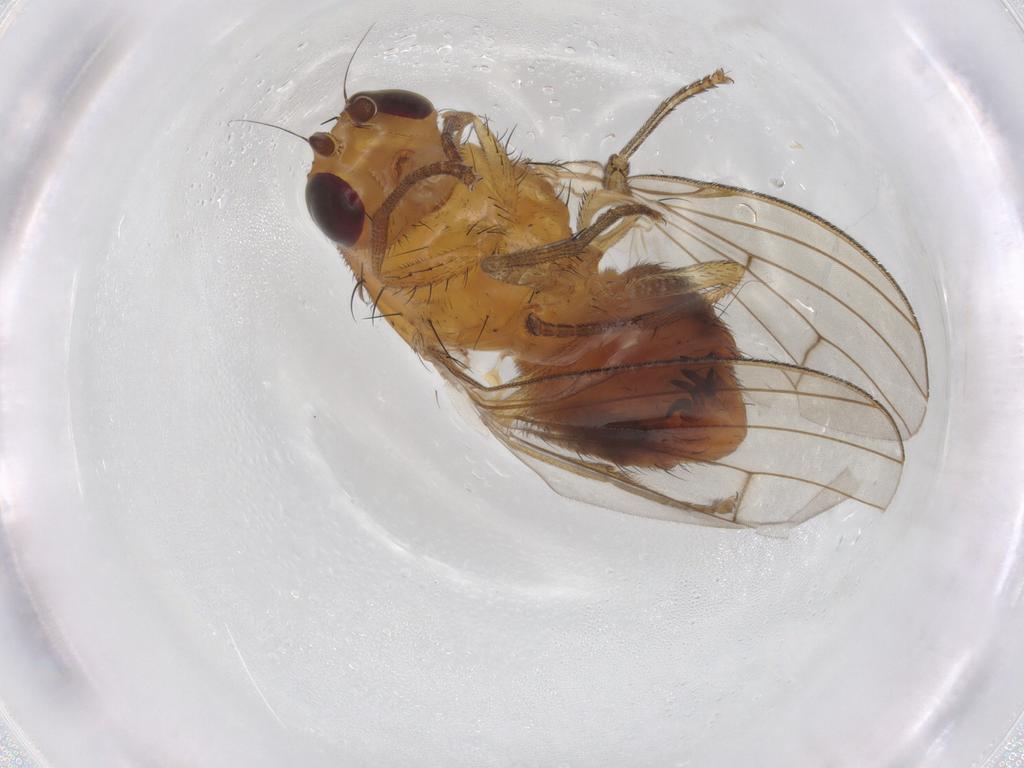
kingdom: Animalia
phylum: Arthropoda
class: Insecta
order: Diptera
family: Lauxaniidae
